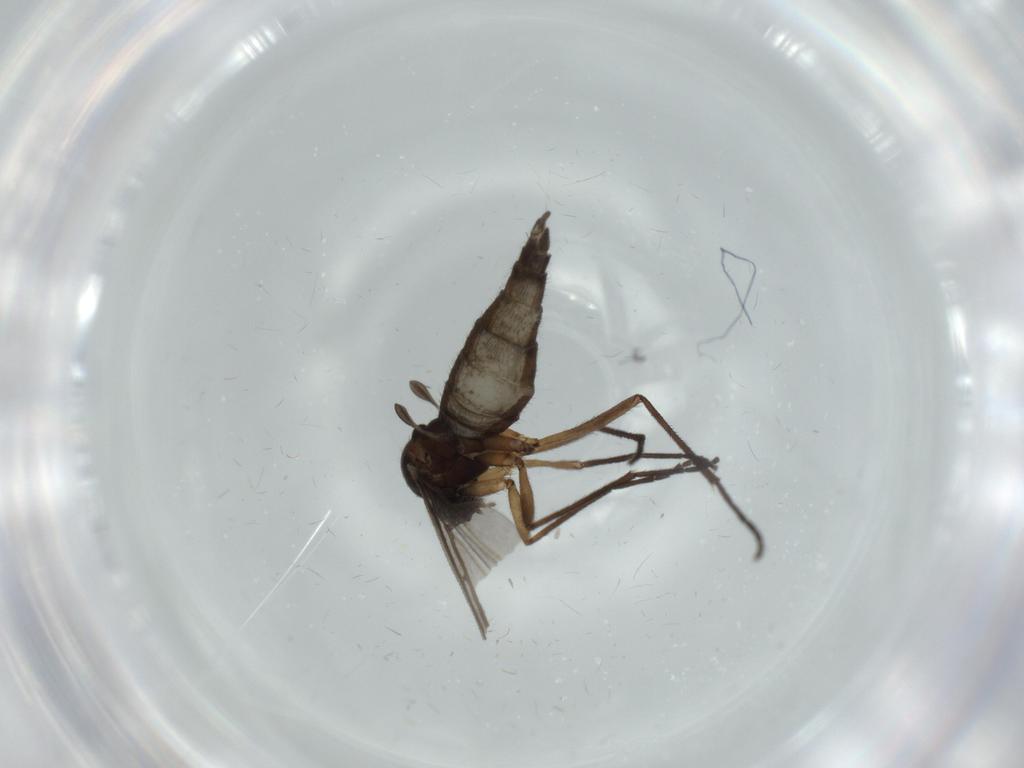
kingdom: Animalia
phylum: Arthropoda
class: Insecta
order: Diptera
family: Sciaridae
